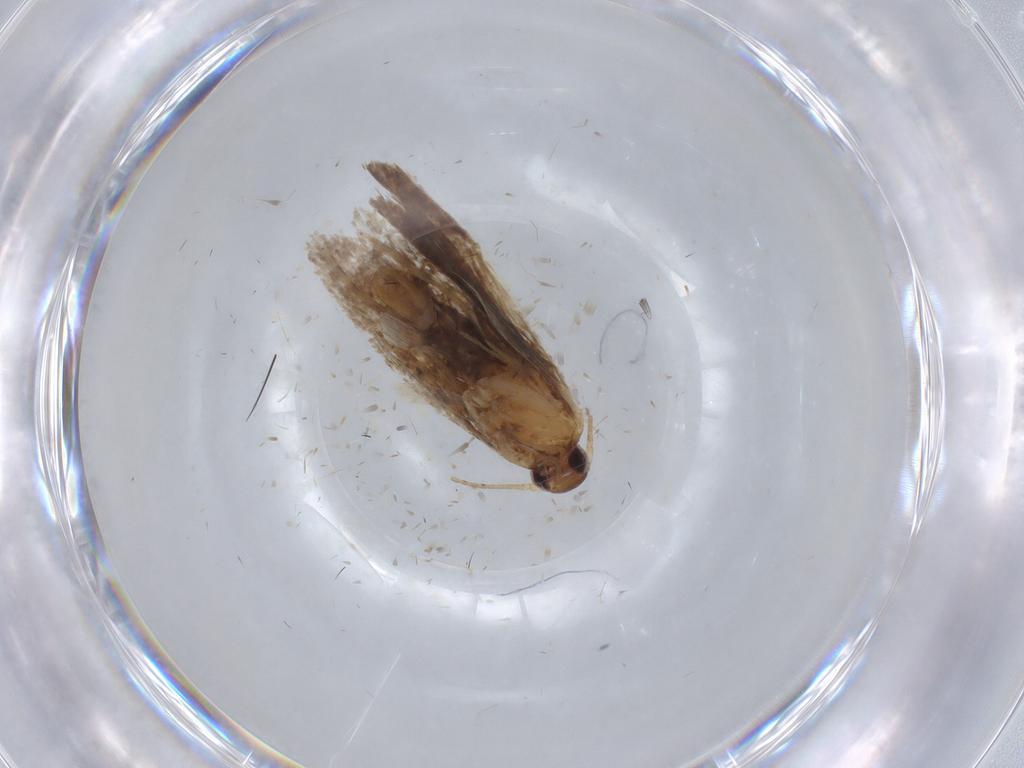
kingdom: Animalia
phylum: Arthropoda
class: Insecta
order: Lepidoptera
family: Oecophoridae
